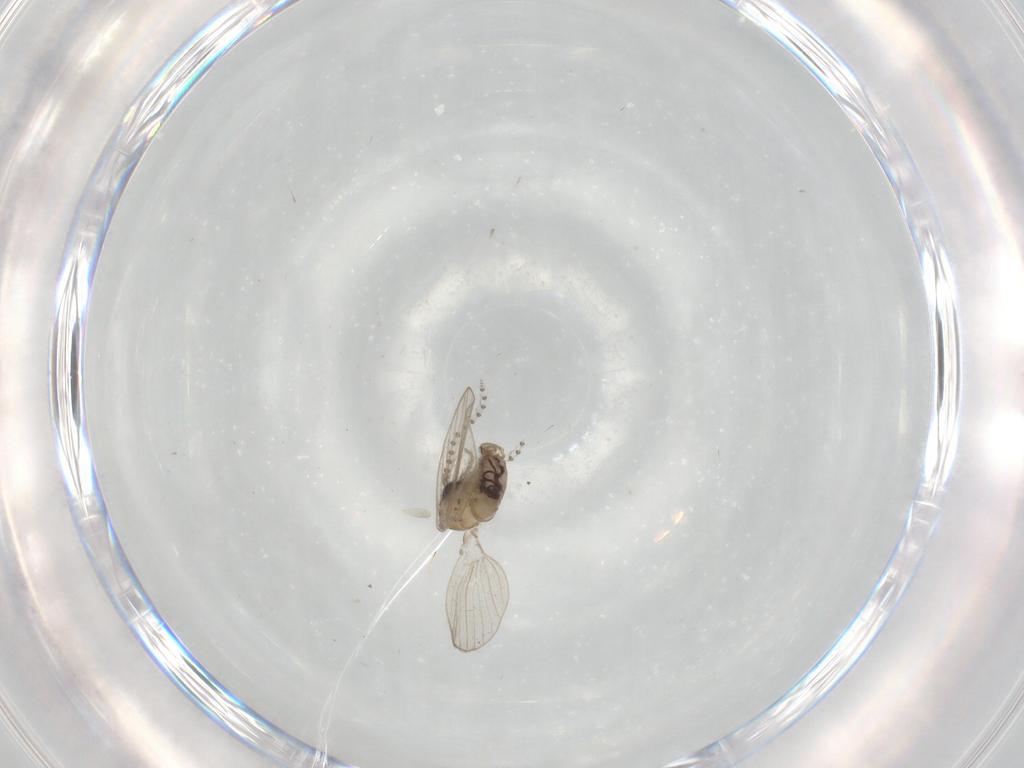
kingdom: Animalia
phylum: Arthropoda
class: Insecta
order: Diptera
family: Psychodidae
